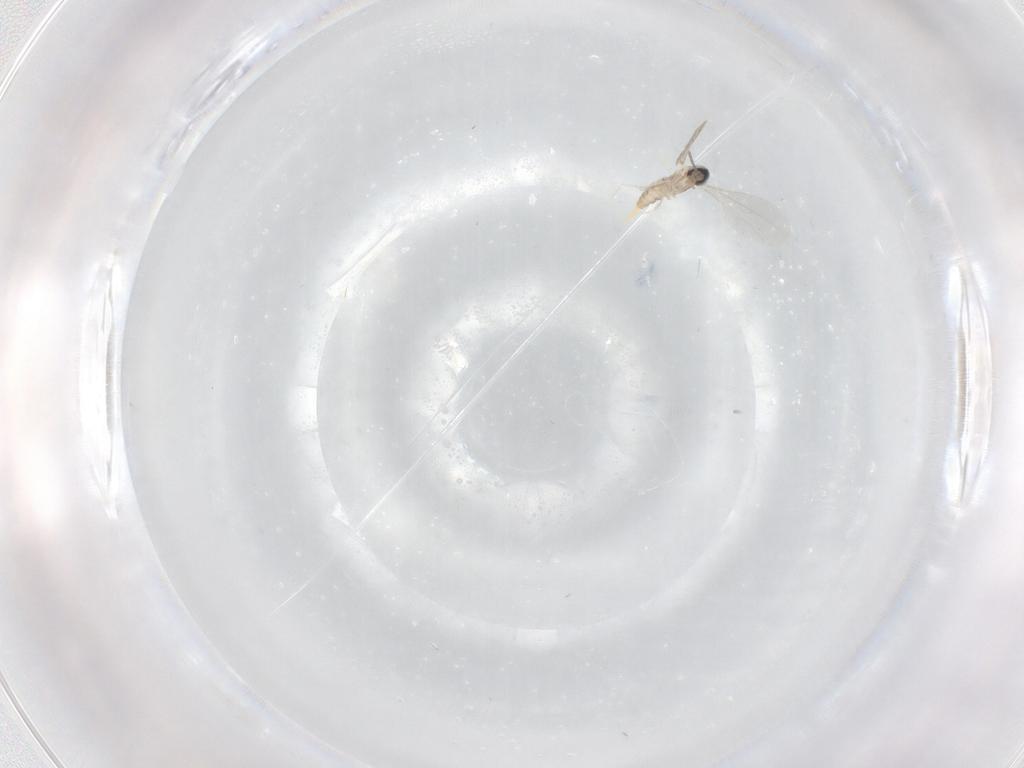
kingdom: Animalia
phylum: Arthropoda
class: Insecta
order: Diptera
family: Cecidomyiidae
